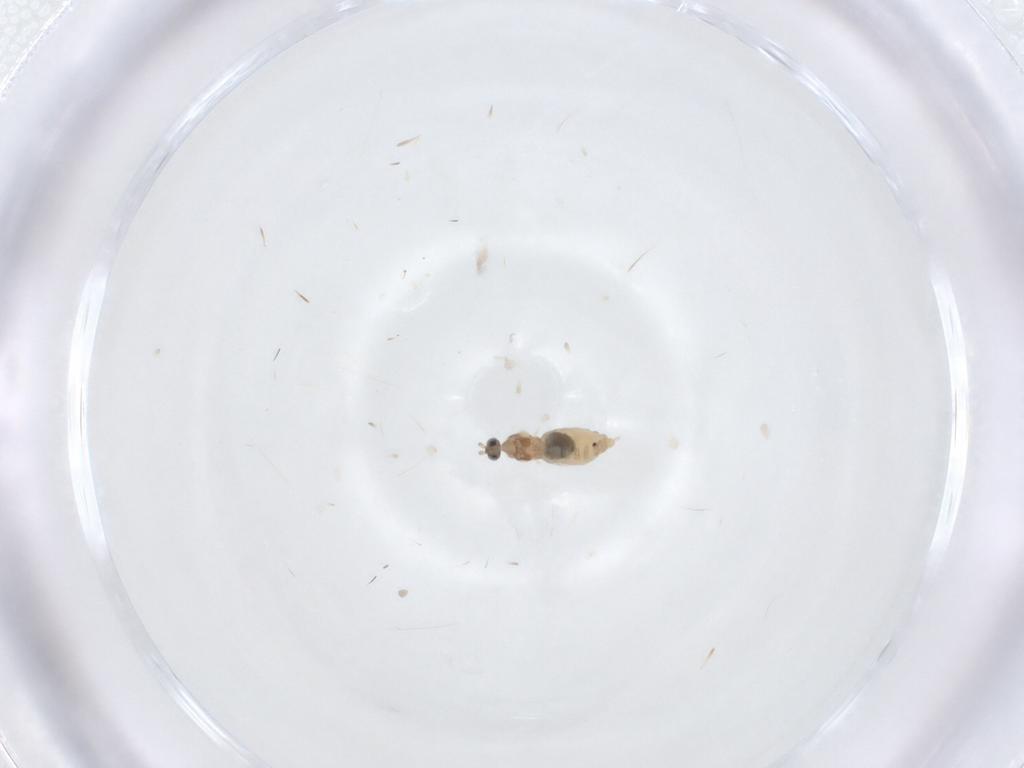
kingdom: Animalia
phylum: Arthropoda
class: Insecta
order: Diptera
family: Cecidomyiidae
